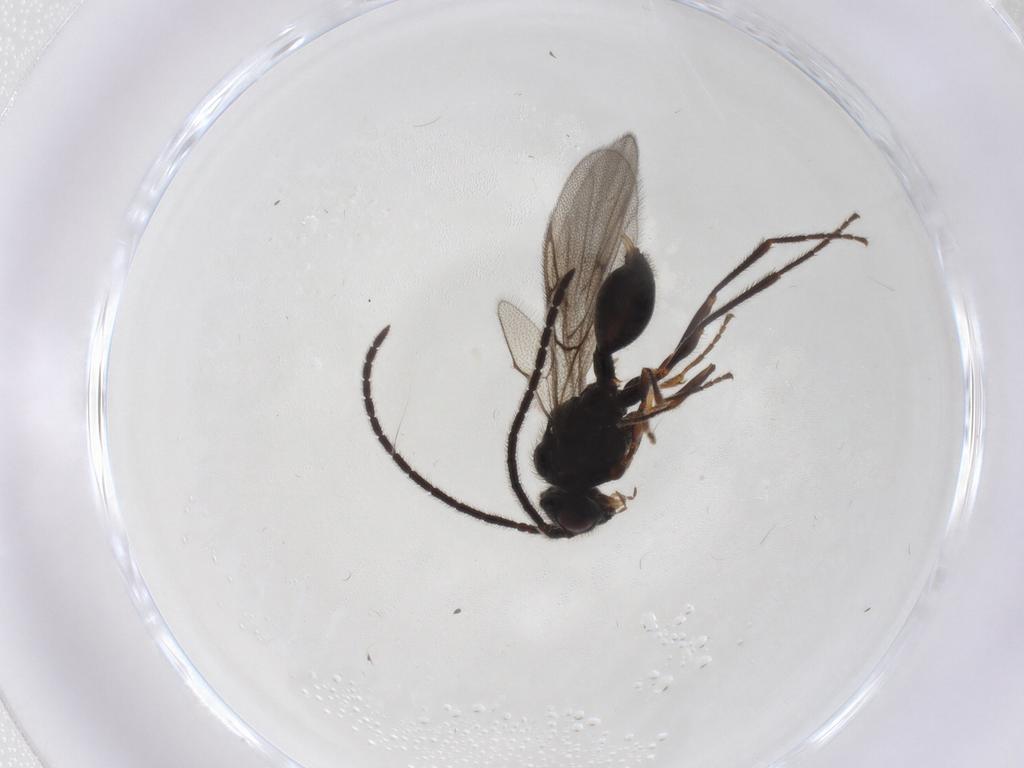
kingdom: Animalia
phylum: Arthropoda
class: Insecta
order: Hymenoptera
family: Diapriidae
